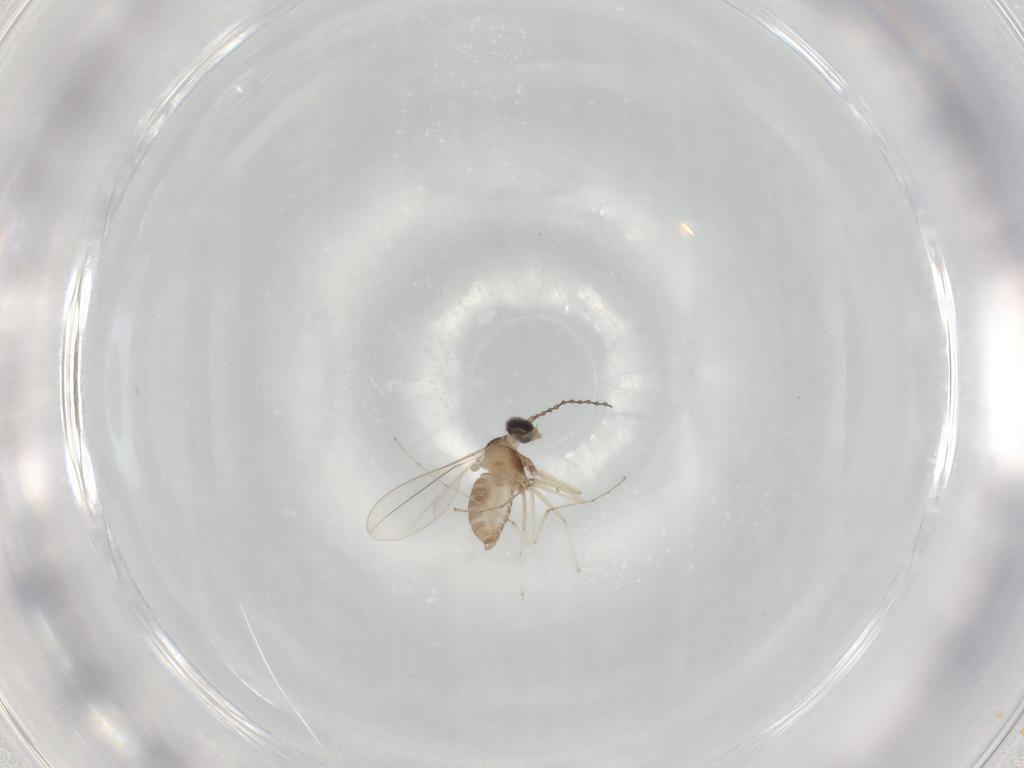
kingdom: Animalia
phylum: Arthropoda
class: Insecta
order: Diptera
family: Cecidomyiidae
